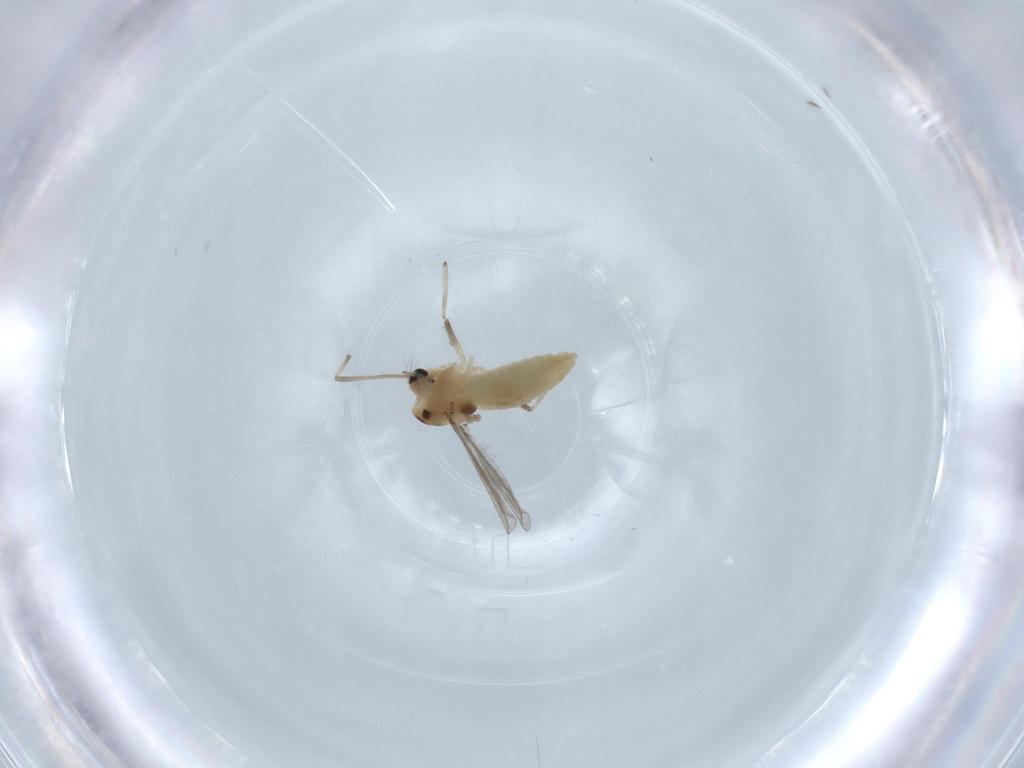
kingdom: Animalia
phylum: Arthropoda
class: Insecta
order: Diptera
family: Chironomidae
